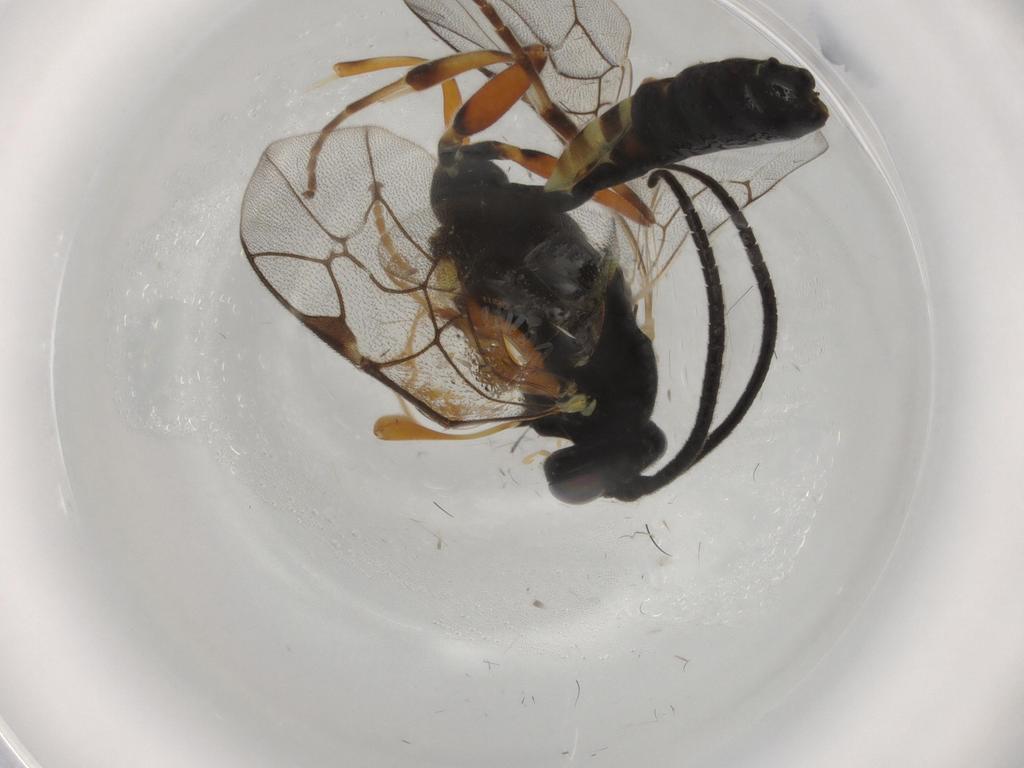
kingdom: Animalia
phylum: Arthropoda
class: Insecta
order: Hymenoptera
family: Ichneumonidae
